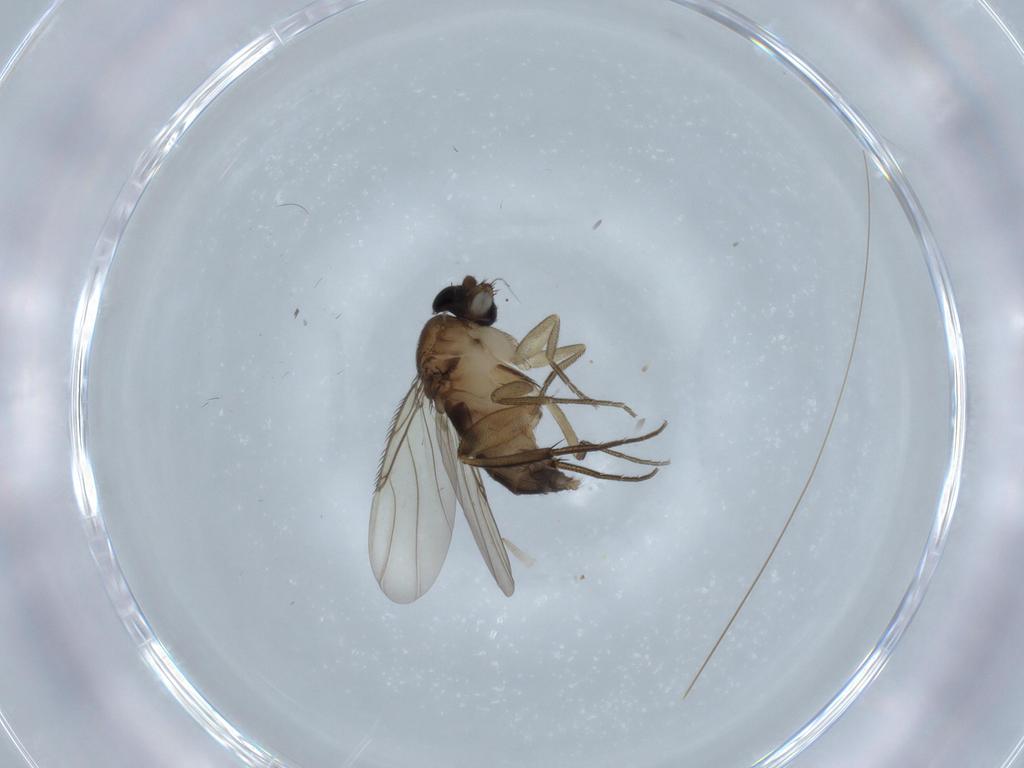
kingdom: Animalia
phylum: Arthropoda
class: Insecta
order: Diptera
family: Phoridae
